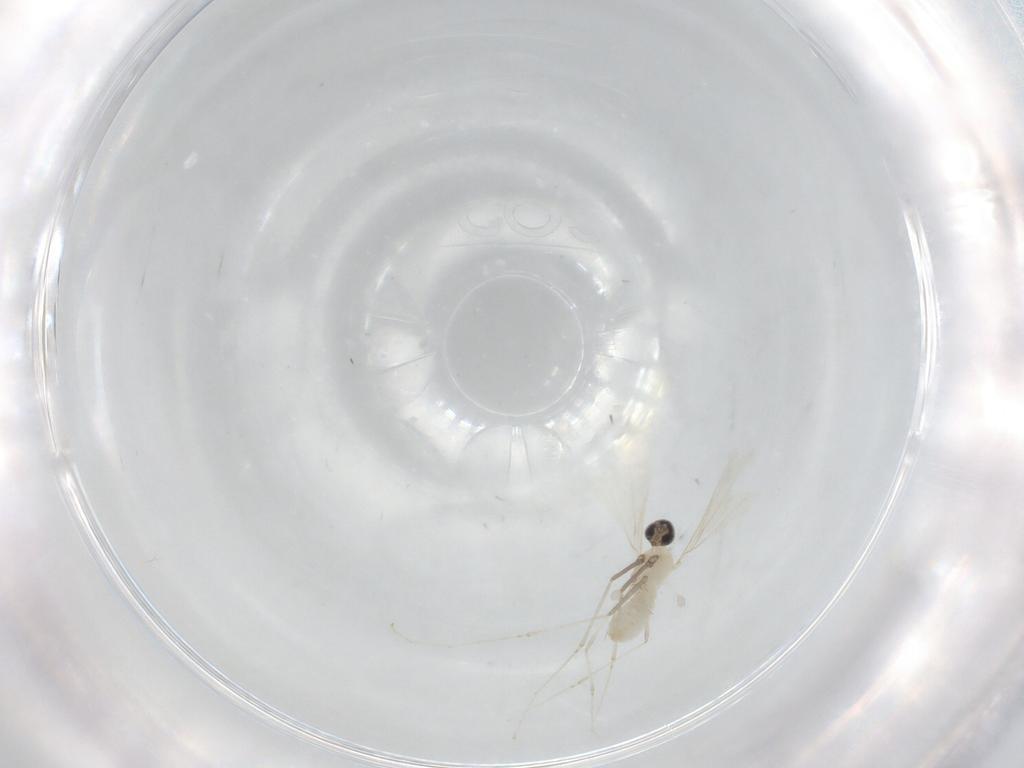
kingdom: Animalia
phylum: Arthropoda
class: Insecta
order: Diptera
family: Cecidomyiidae
